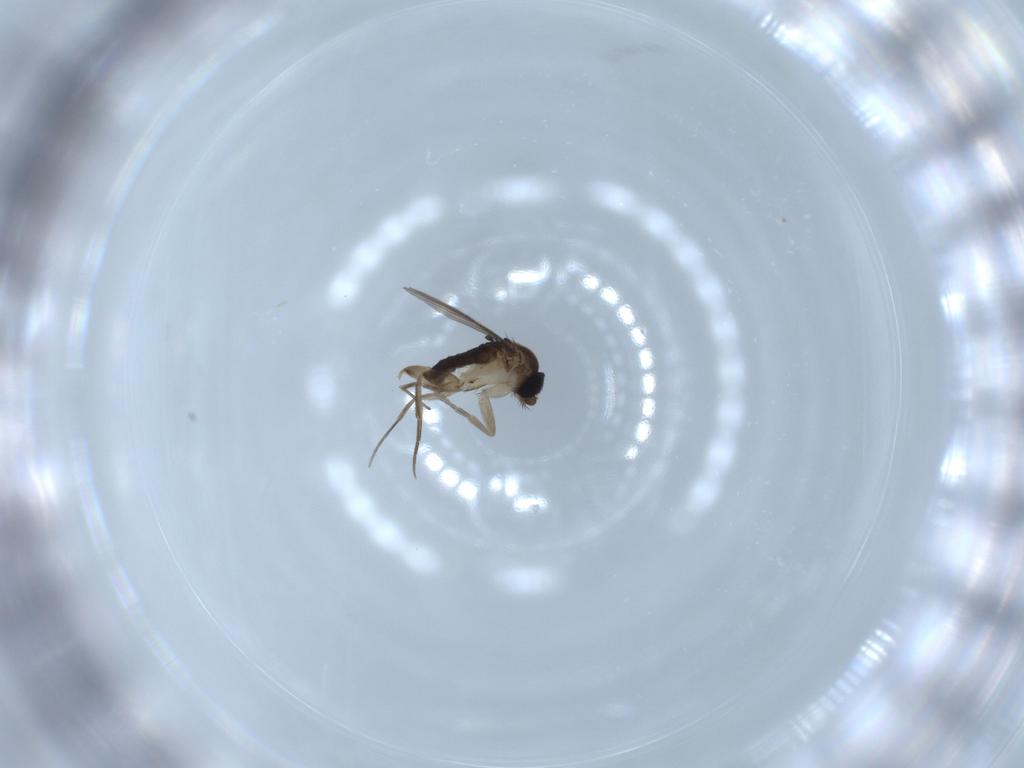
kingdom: Animalia
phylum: Arthropoda
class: Insecta
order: Diptera
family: Phoridae
